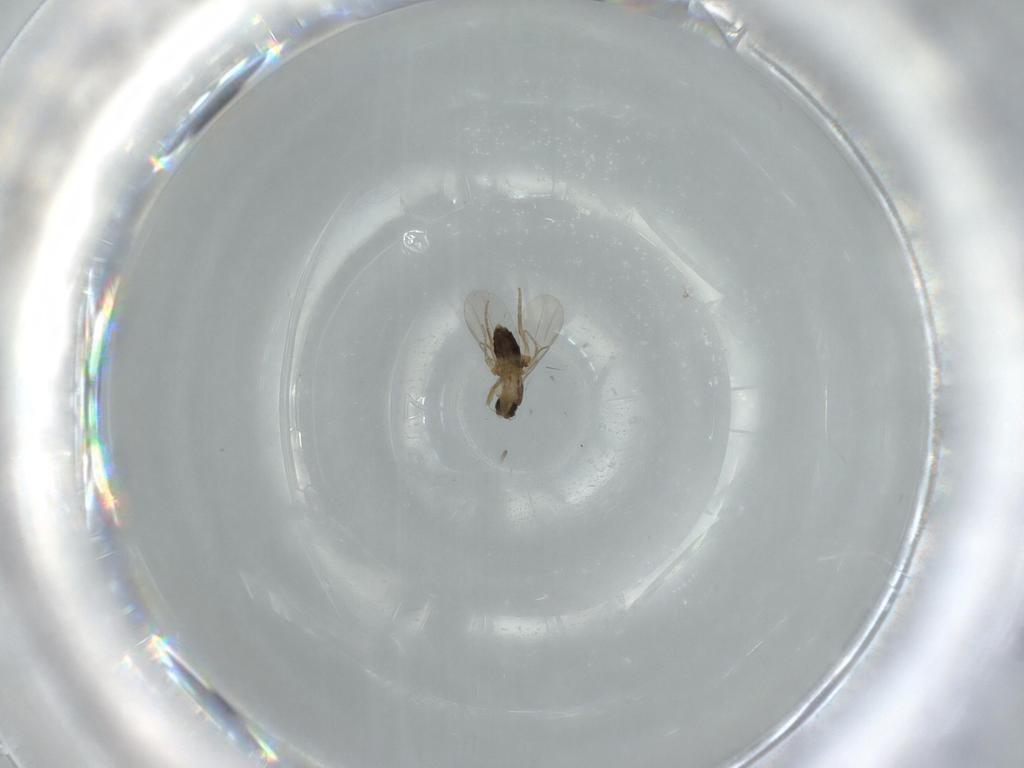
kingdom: Animalia
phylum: Arthropoda
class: Insecta
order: Diptera
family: Phoridae
